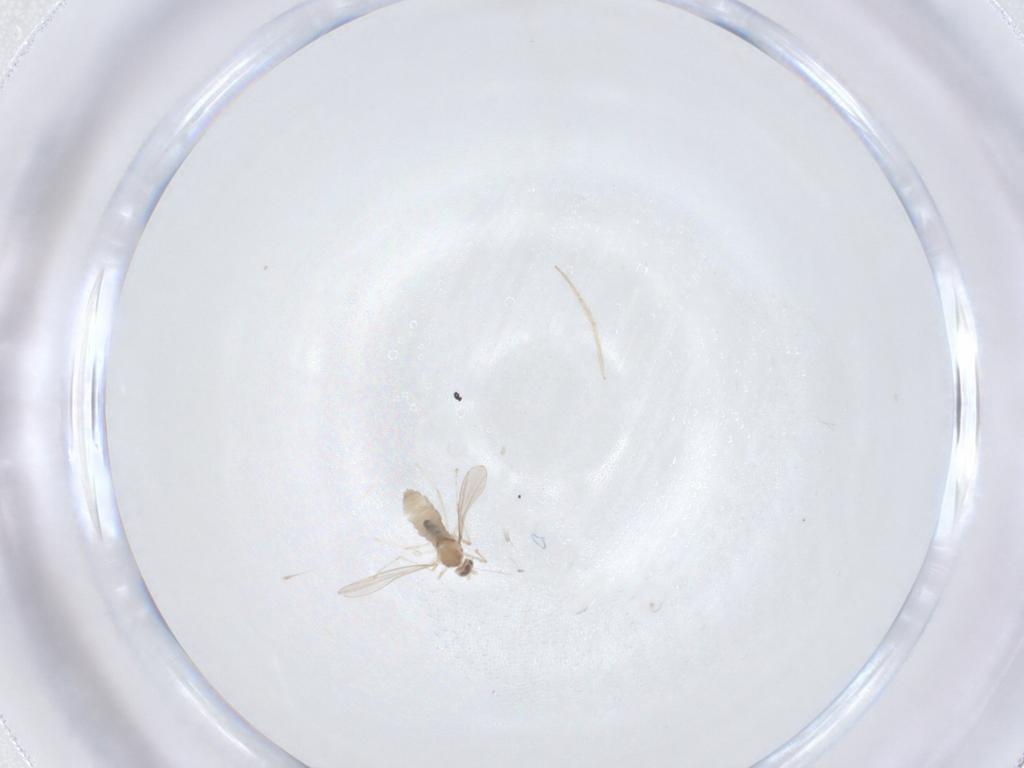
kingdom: Animalia
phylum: Arthropoda
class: Insecta
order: Diptera
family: Cecidomyiidae
